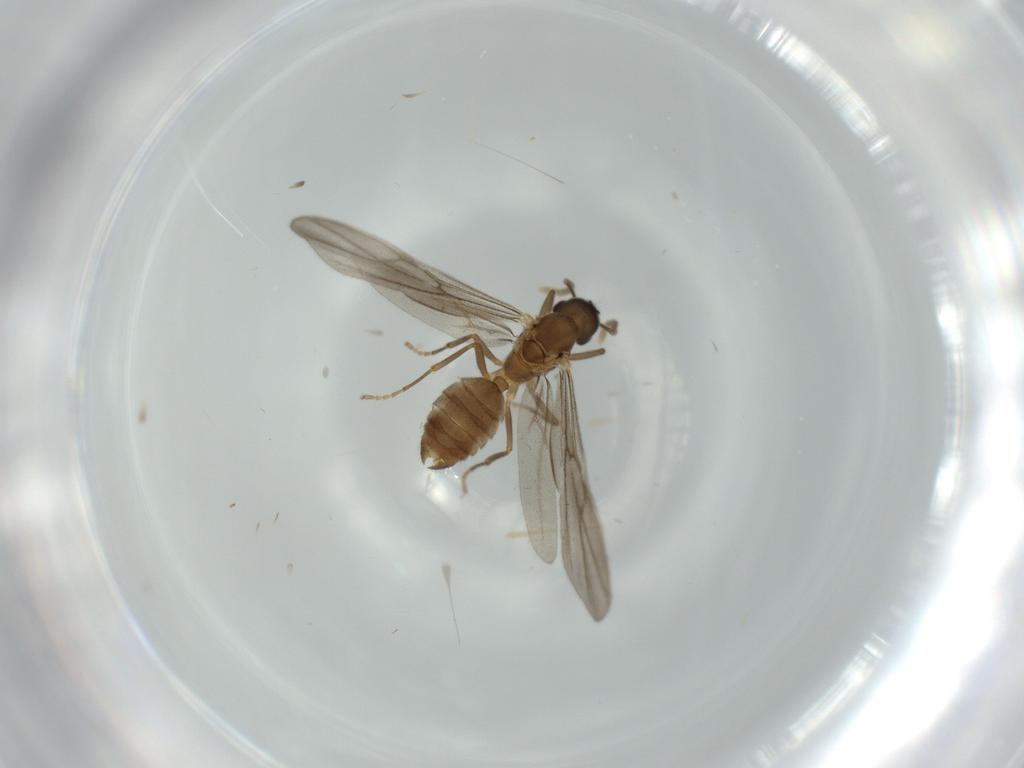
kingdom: Animalia
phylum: Arthropoda
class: Insecta
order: Hymenoptera
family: Formicidae
